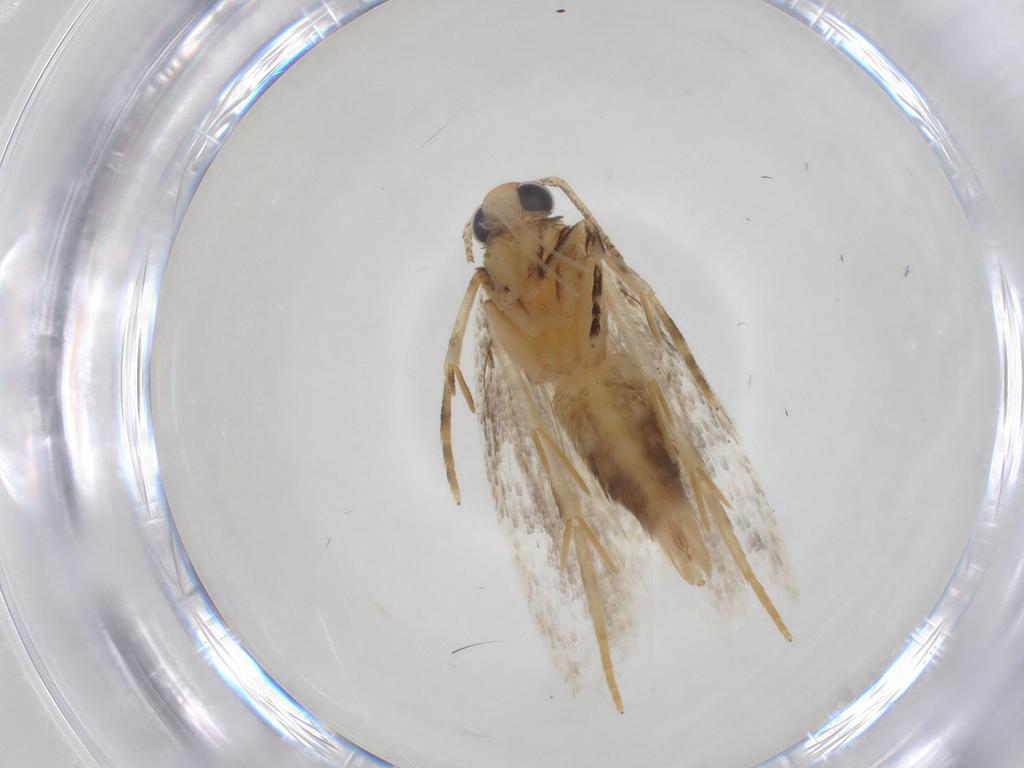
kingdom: Animalia
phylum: Arthropoda
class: Insecta
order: Lepidoptera
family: Autostichidae
